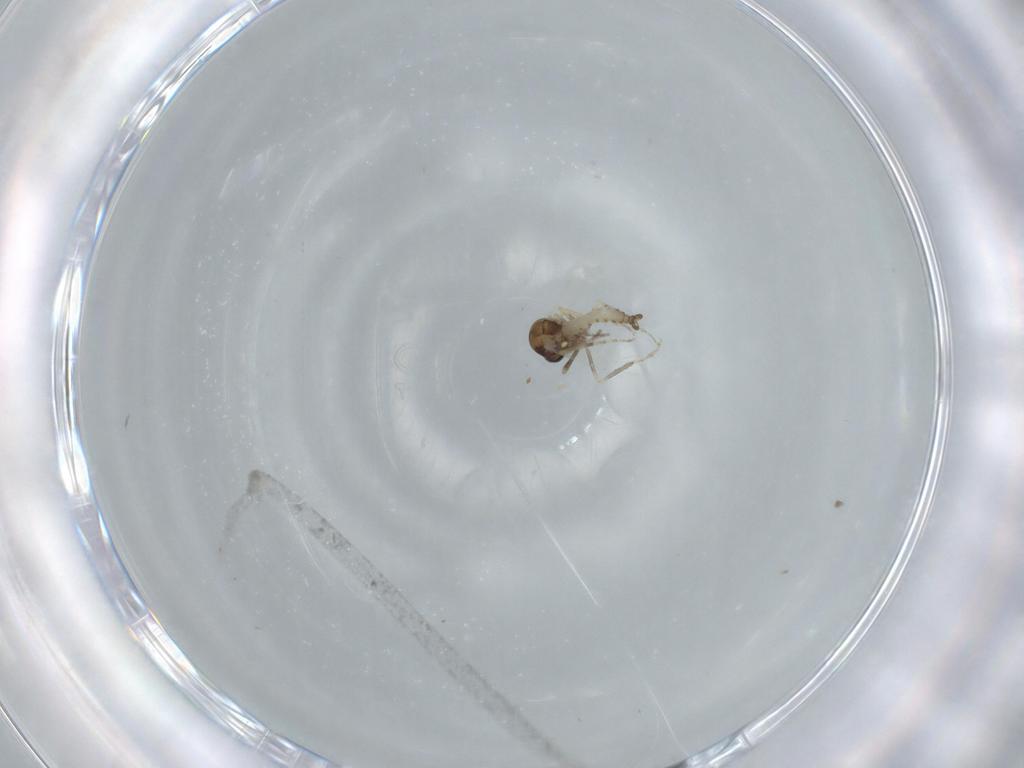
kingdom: Animalia
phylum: Arthropoda
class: Insecta
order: Diptera
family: Ceratopogonidae
